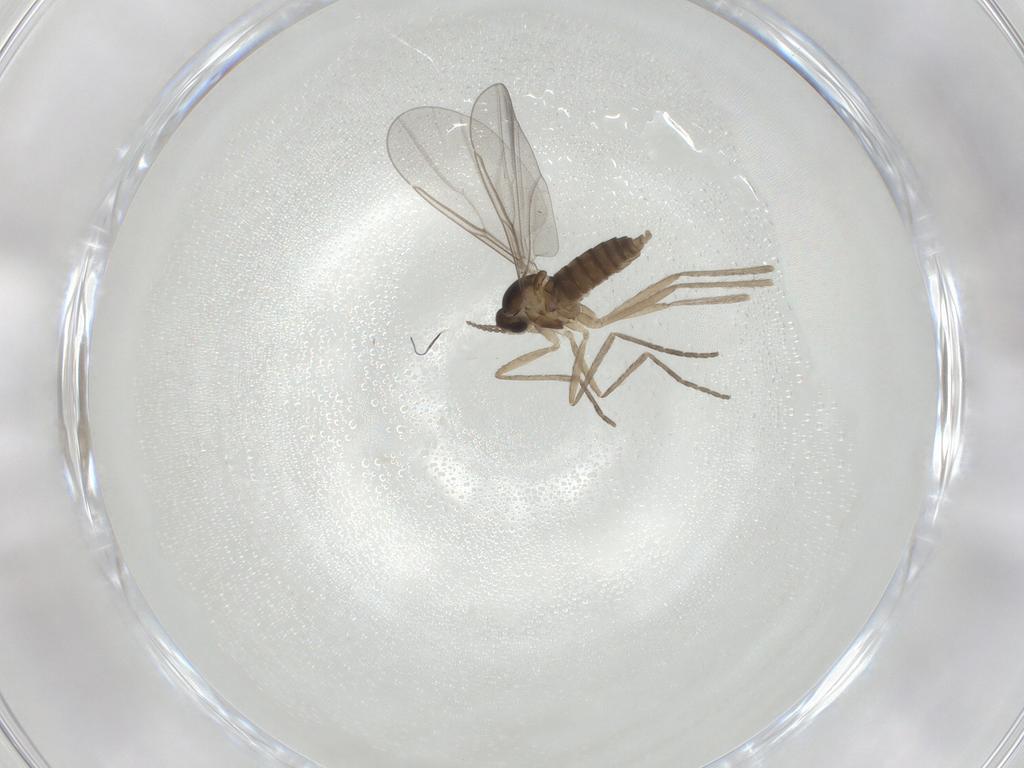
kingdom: Animalia
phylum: Arthropoda
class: Insecta
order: Diptera
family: Cecidomyiidae
